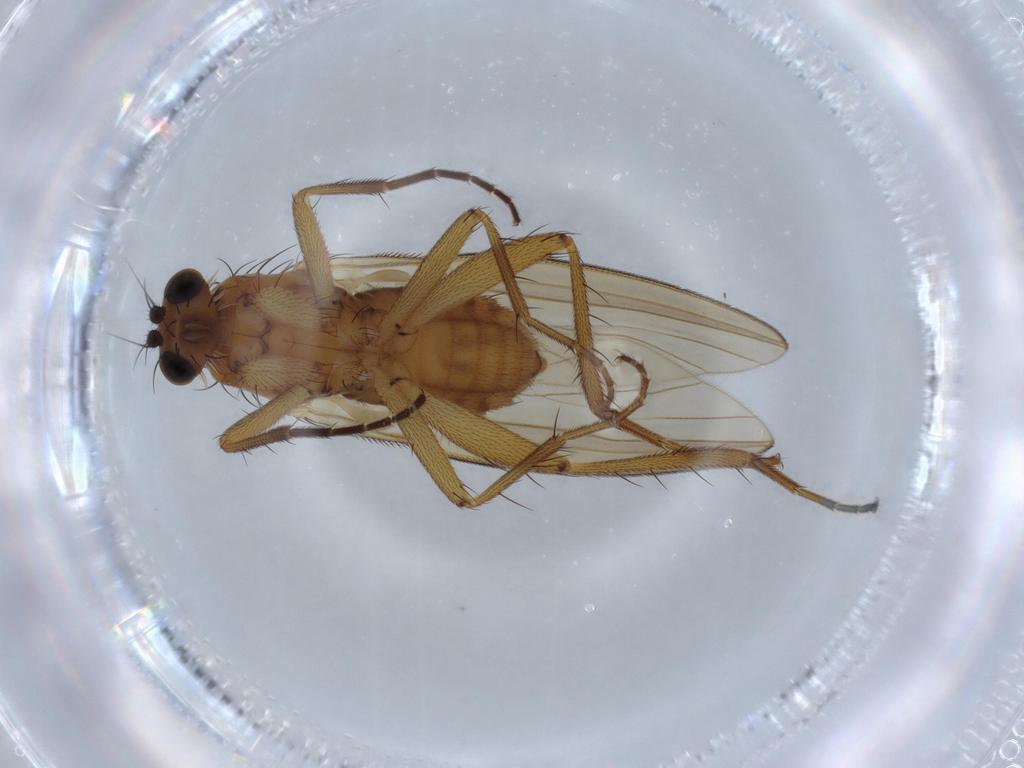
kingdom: Animalia
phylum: Arthropoda
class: Insecta
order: Diptera
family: Lonchopteridae
